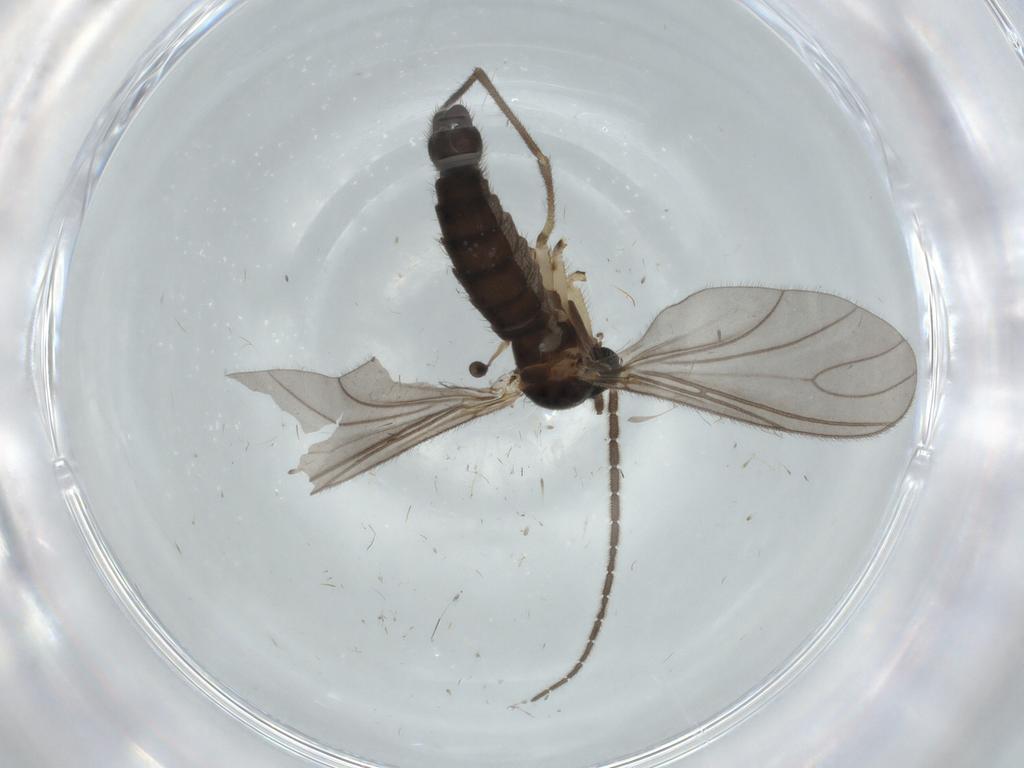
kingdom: Animalia
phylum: Arthropoda
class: Insecta
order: Diptera
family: Sciaridae
